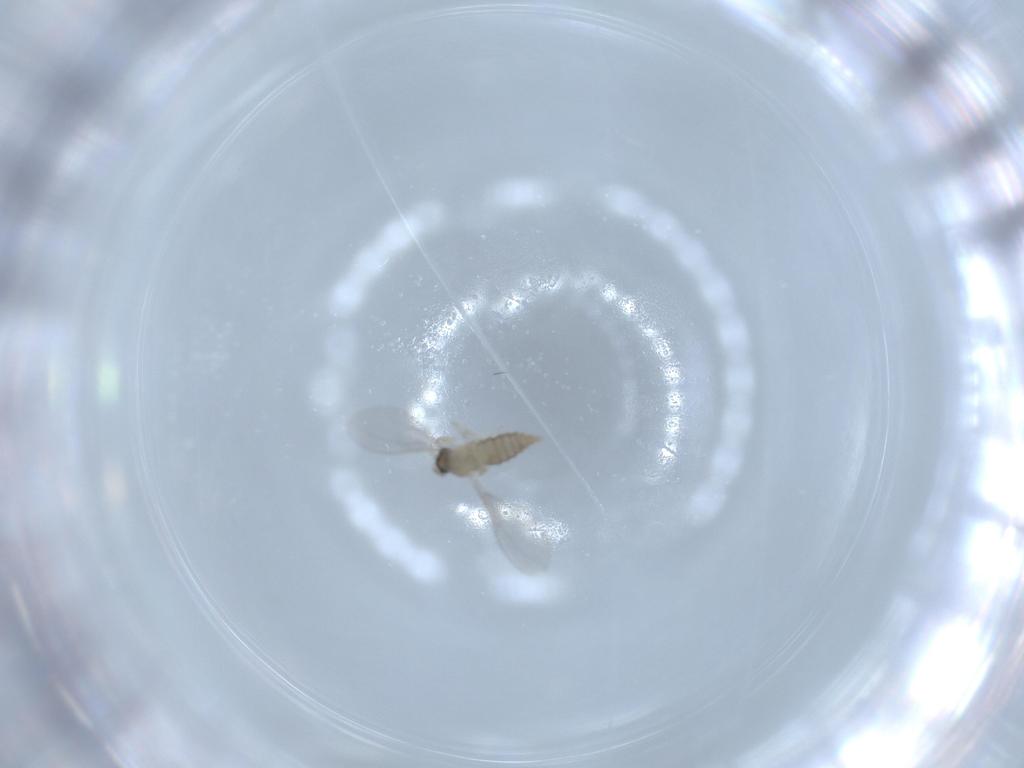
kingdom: Animalia
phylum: Arthropoda
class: Insecta
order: Diptera
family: Cecidomyiidae
